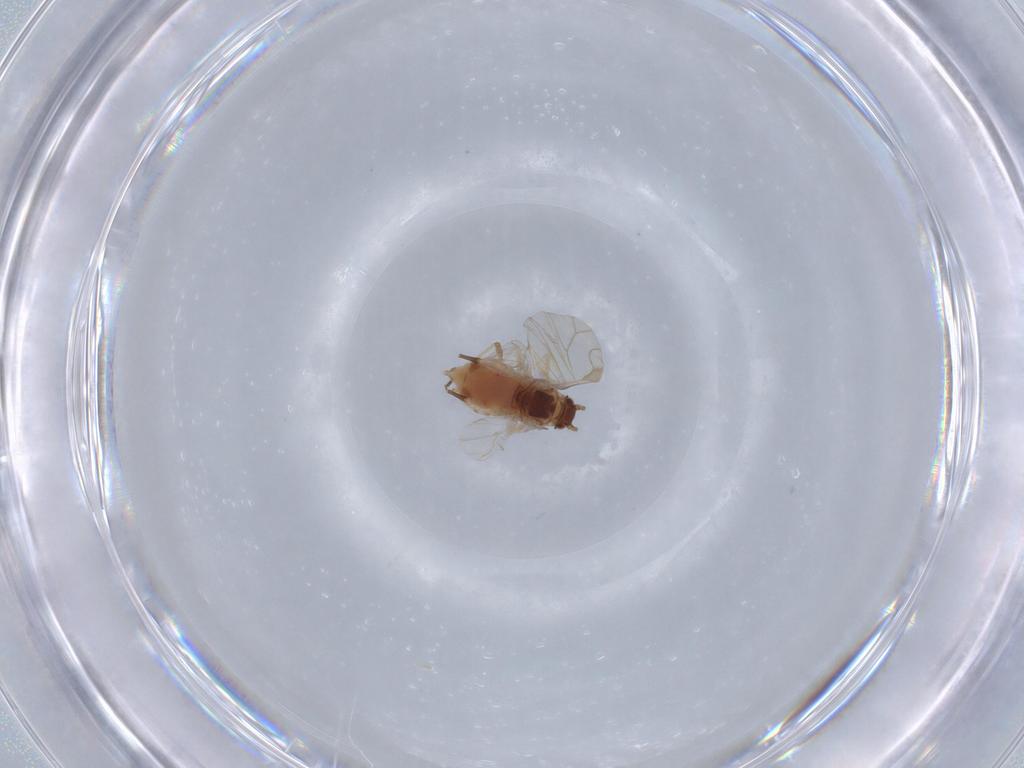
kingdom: Animalia
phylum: Arthropoda
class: Insecta
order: Hemiptera
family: Aphididae
